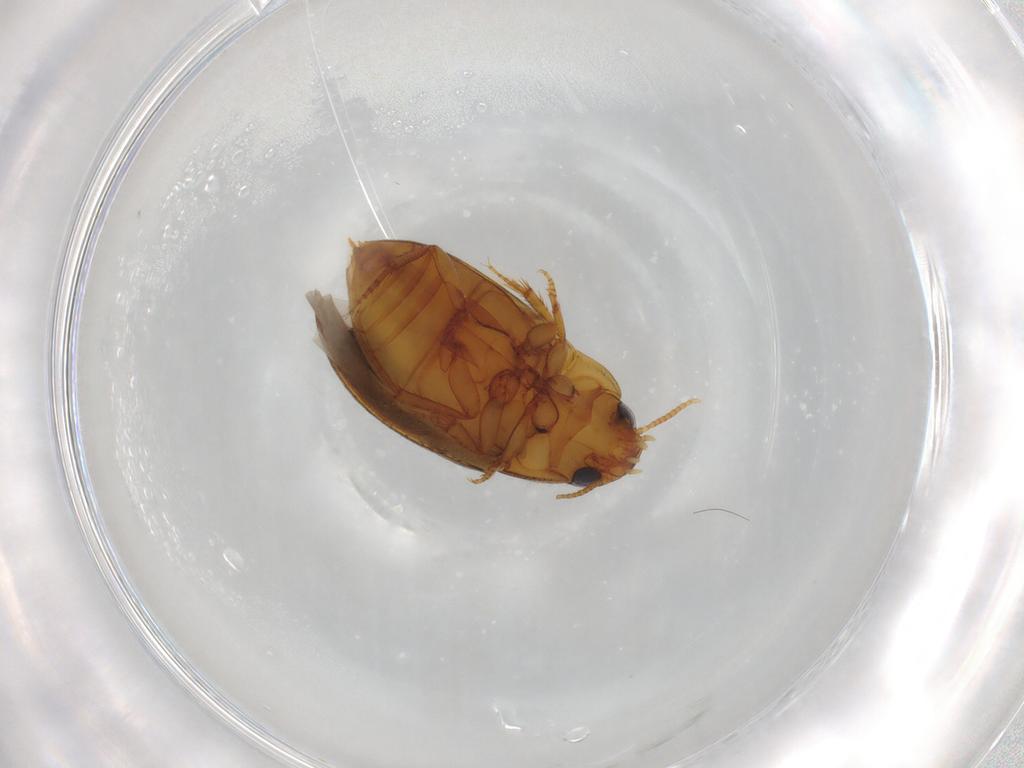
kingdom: Animalia
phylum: Arthropoda
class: Insecta
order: Coleoptera
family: Noteridae
